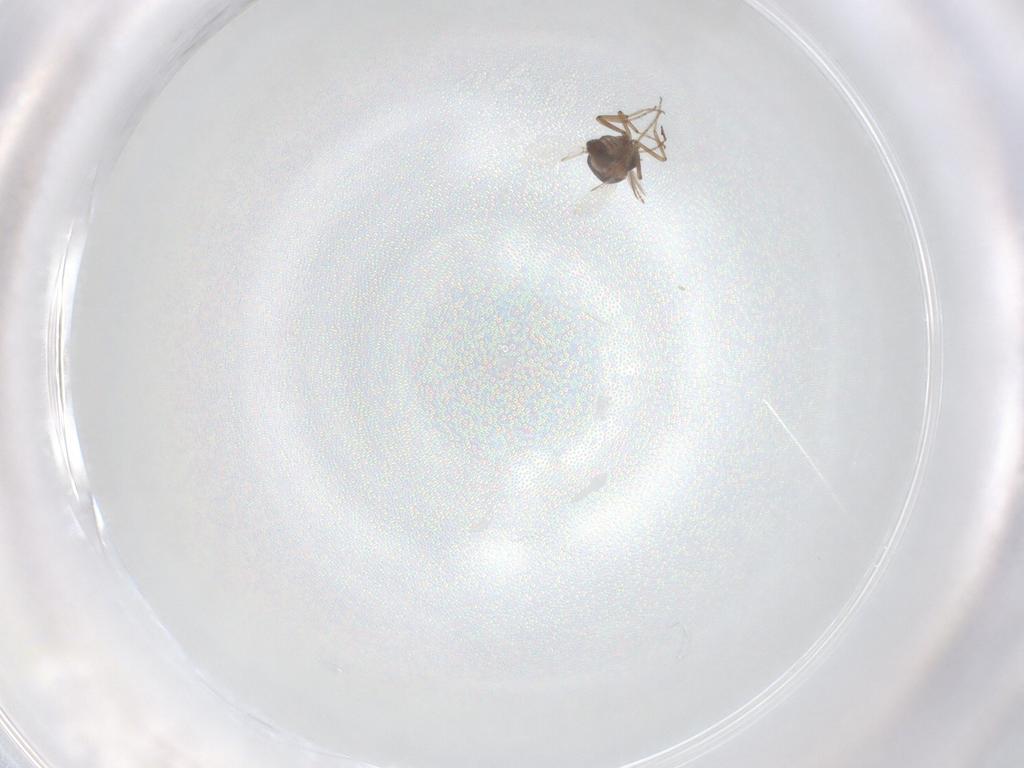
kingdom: Animalia
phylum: Arthropoda
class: Insecta
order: Diptera
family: Ceratopogonidae
